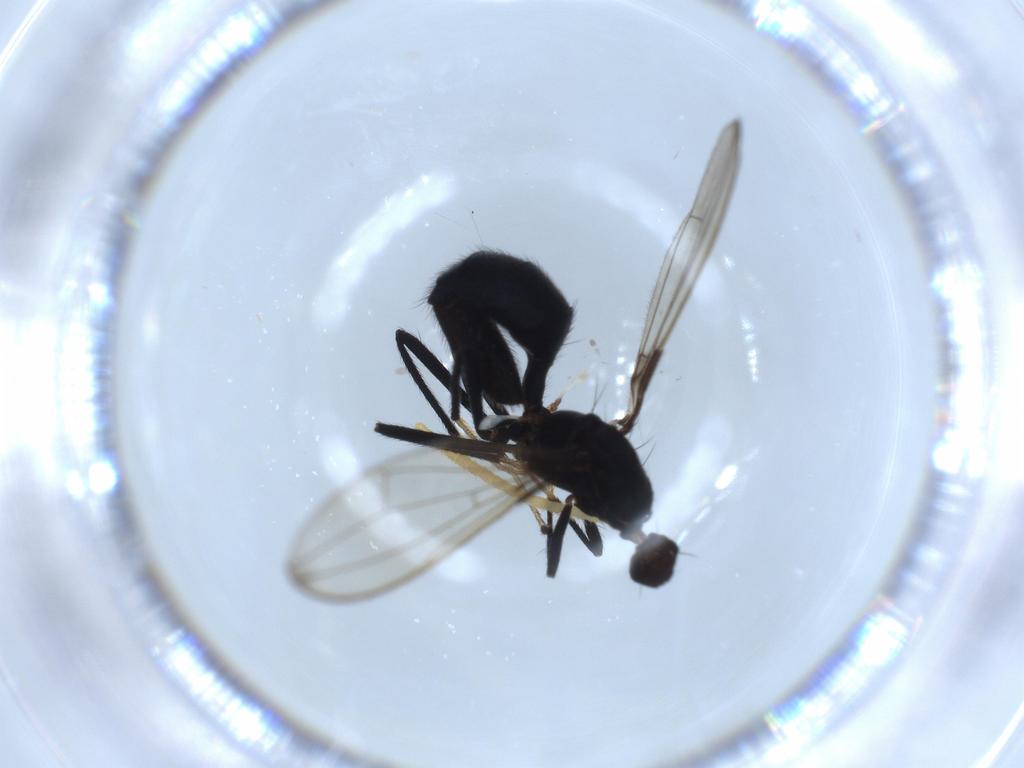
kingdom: Animalia
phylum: Arthropoda
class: Insecta
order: Diptera
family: Richardiidae
